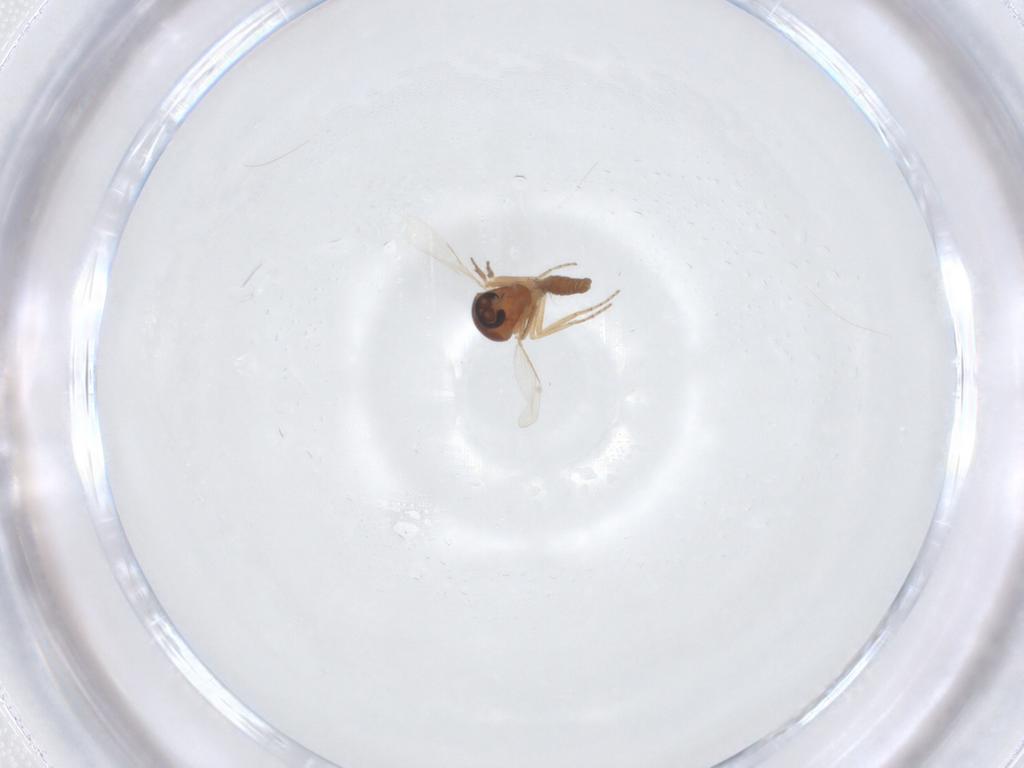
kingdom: Animalia
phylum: Arthropoda
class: Insecta
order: Diptera
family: Ceratopogonidae
